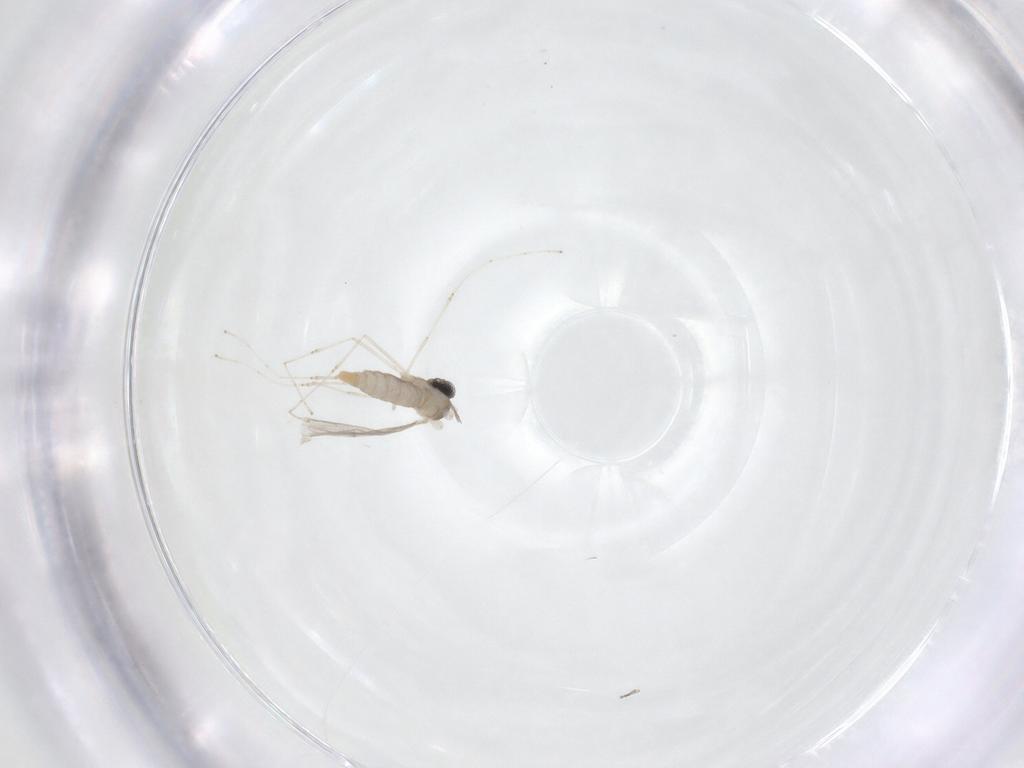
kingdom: Animalia
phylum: Arthropoda
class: Insecta
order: Diptera
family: Cecidomyiidae
